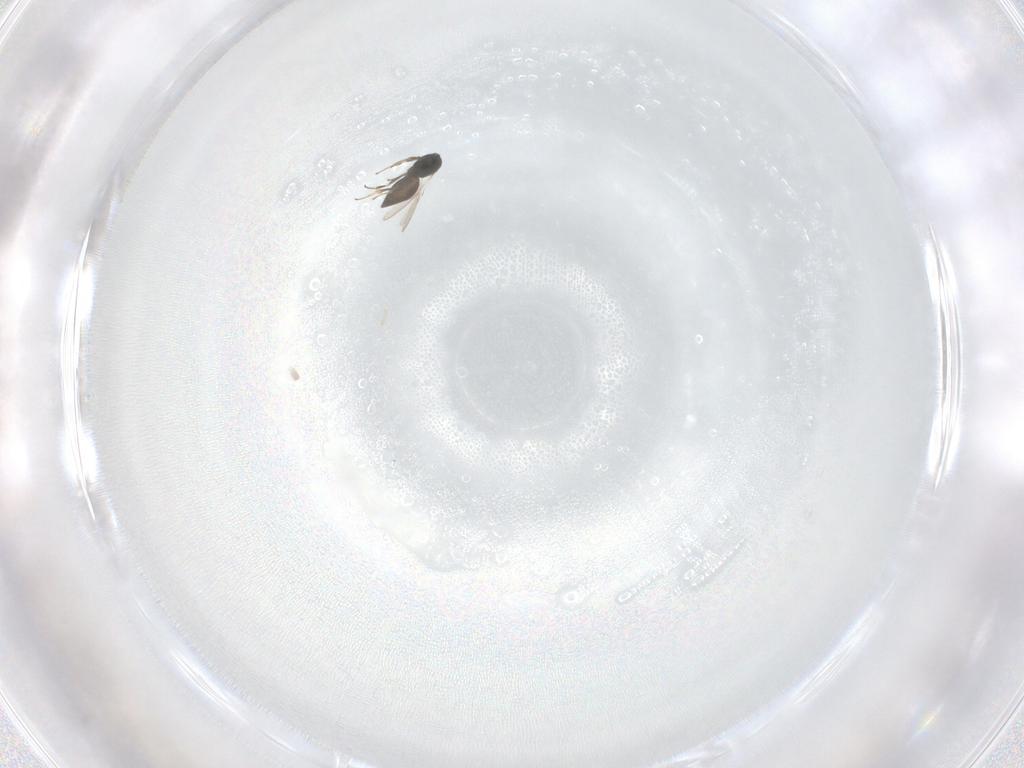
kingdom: Animalia
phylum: Arthropoda
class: Insecta
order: Hymenoptera
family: Scelionidae
